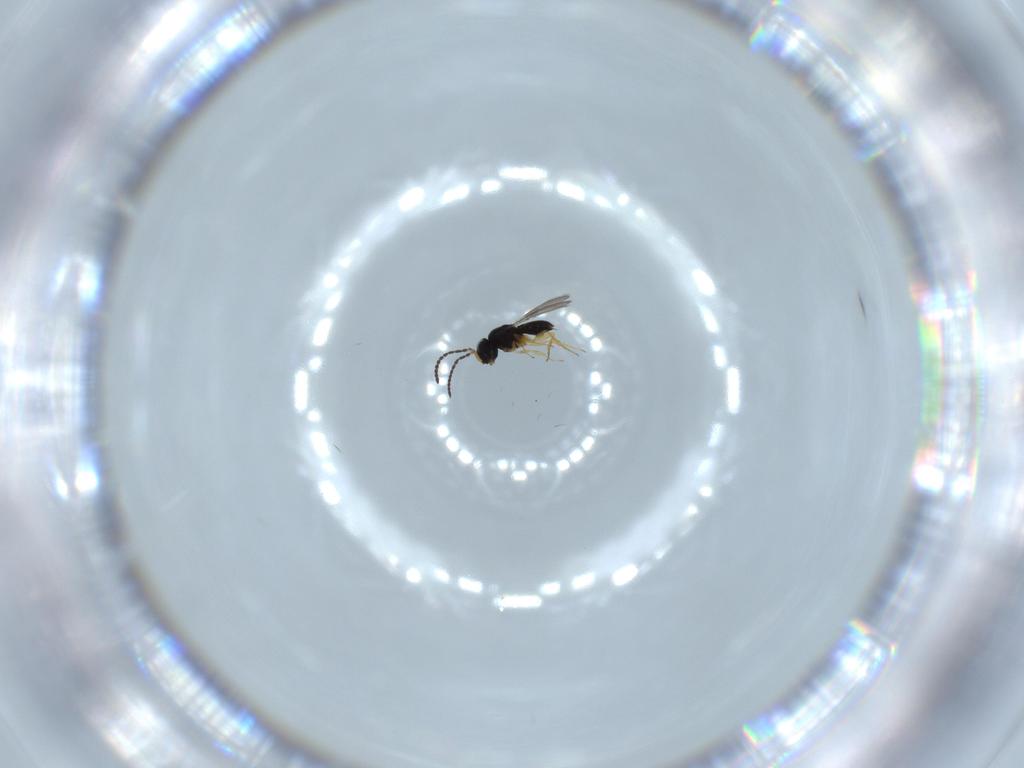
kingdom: Animalia
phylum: Arthropoda
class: Insecta
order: Hymenoptera
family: Scelionidae
